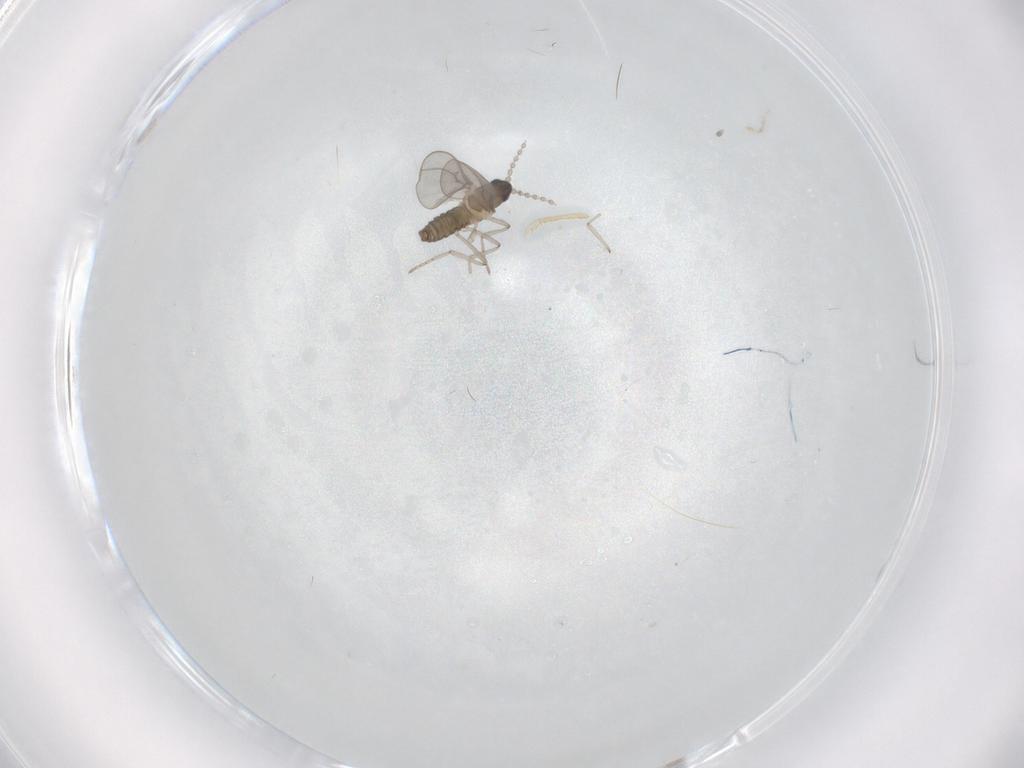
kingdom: Animalia
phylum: Arthropoda
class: Insecta
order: Diptera
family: Cecidomyiidae
